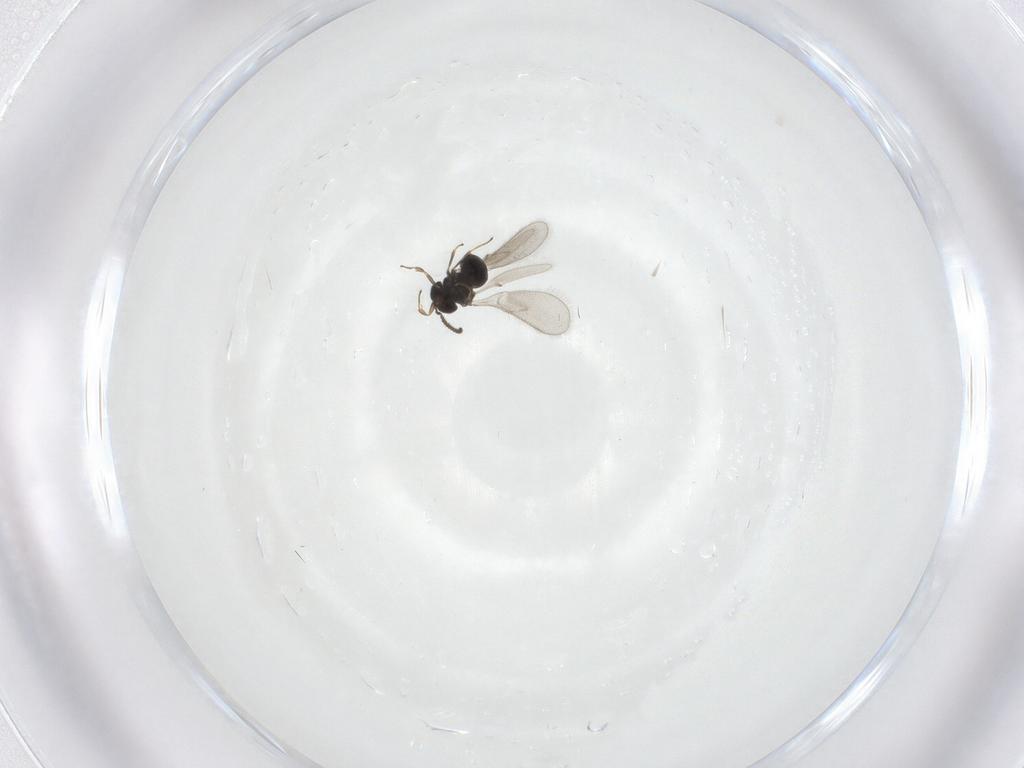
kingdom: Animalia
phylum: Arthropoda
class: Insecta
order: Hymenoptera
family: Scelionidae
